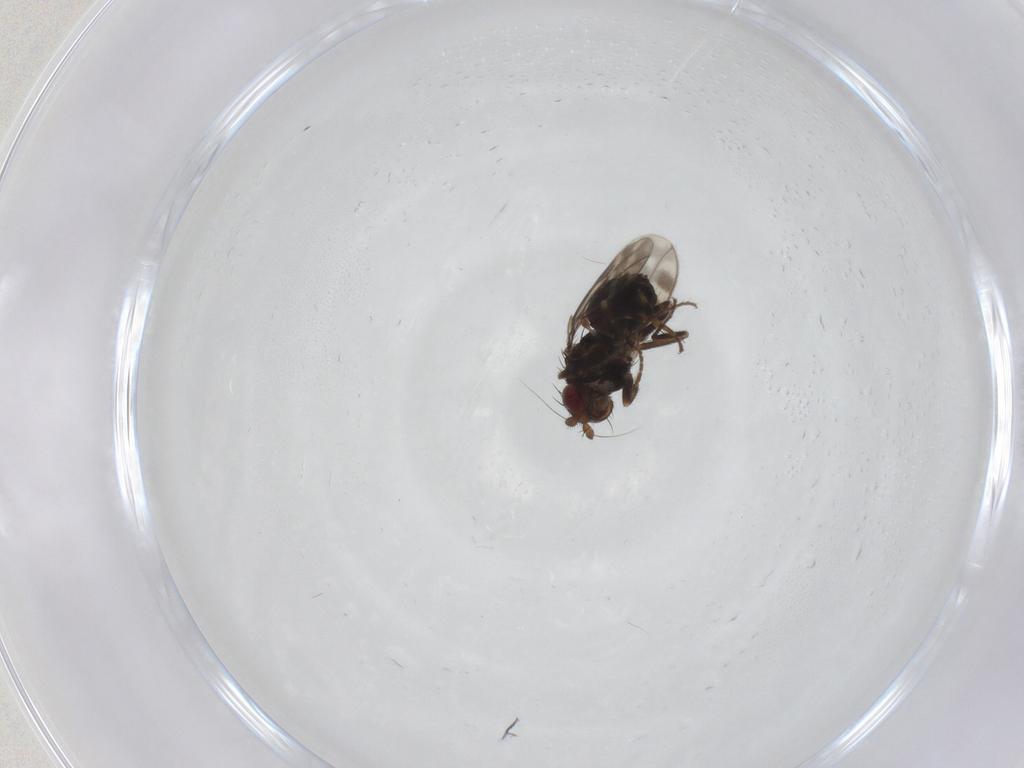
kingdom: Animalia
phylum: Arthropoda
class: Insecta
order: Diptera
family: Sphaeroceridae
